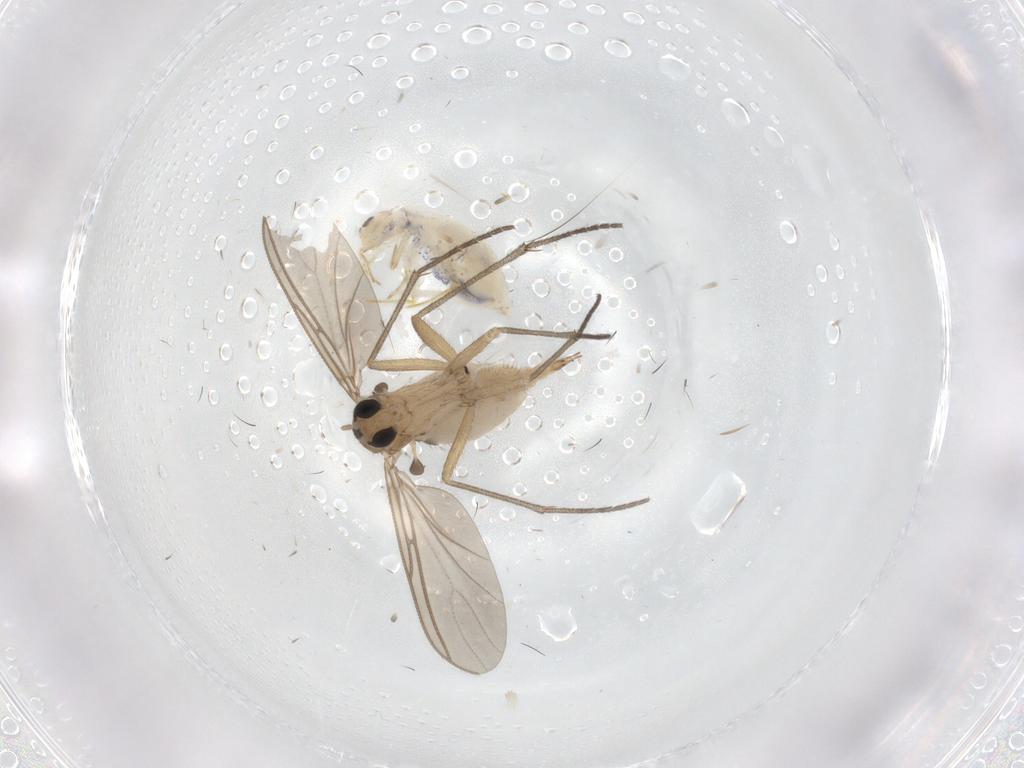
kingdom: Animalia
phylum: Arthropoda
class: Insecta
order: Diptera
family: Sciaridae
